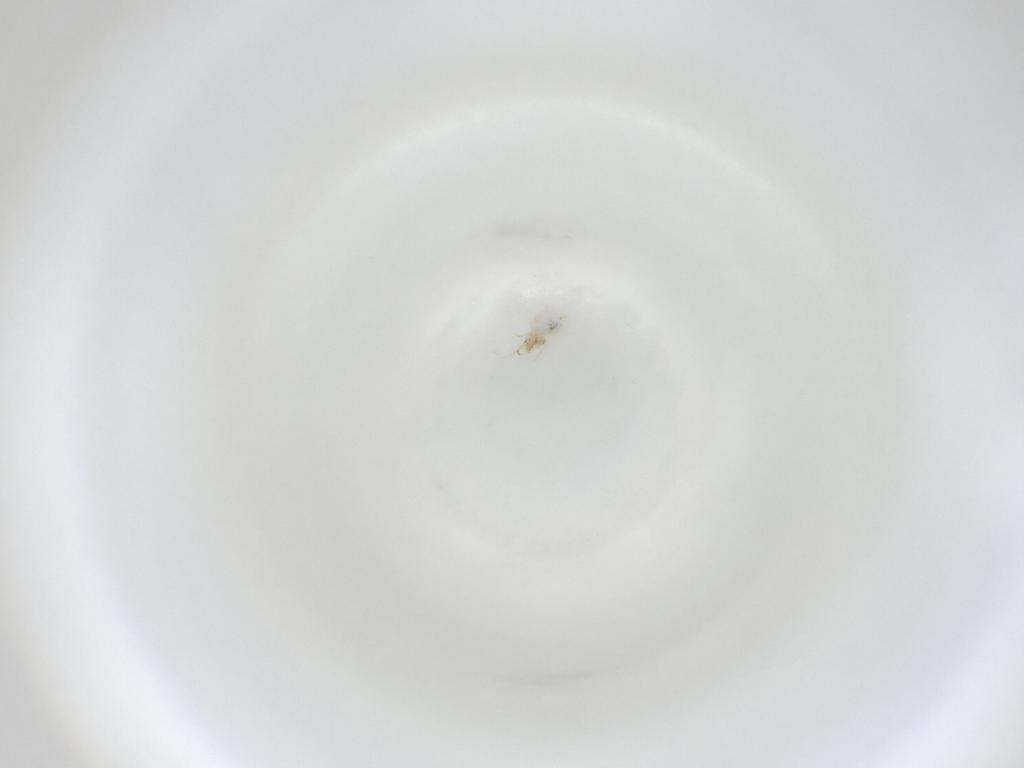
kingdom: Animalia
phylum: Arthropoda
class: Insecta
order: Diptera
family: Cecidomyiidae
